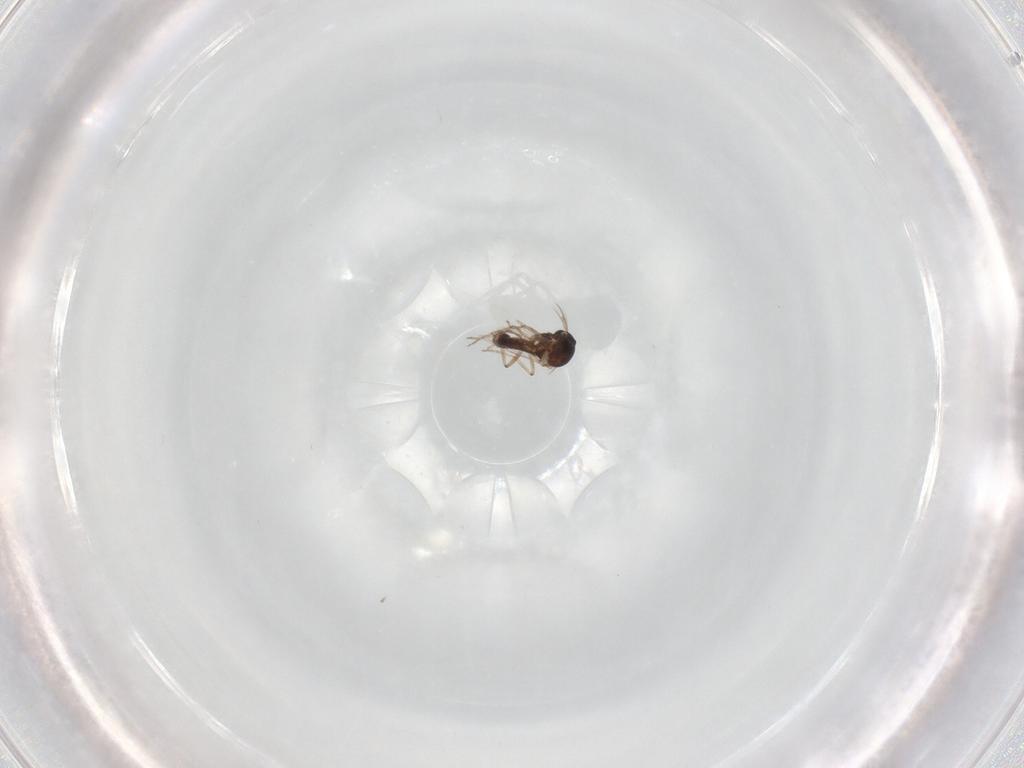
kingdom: Animalia
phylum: Arthropoda
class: Insecta
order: Diptera
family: Ceratopogonidae
